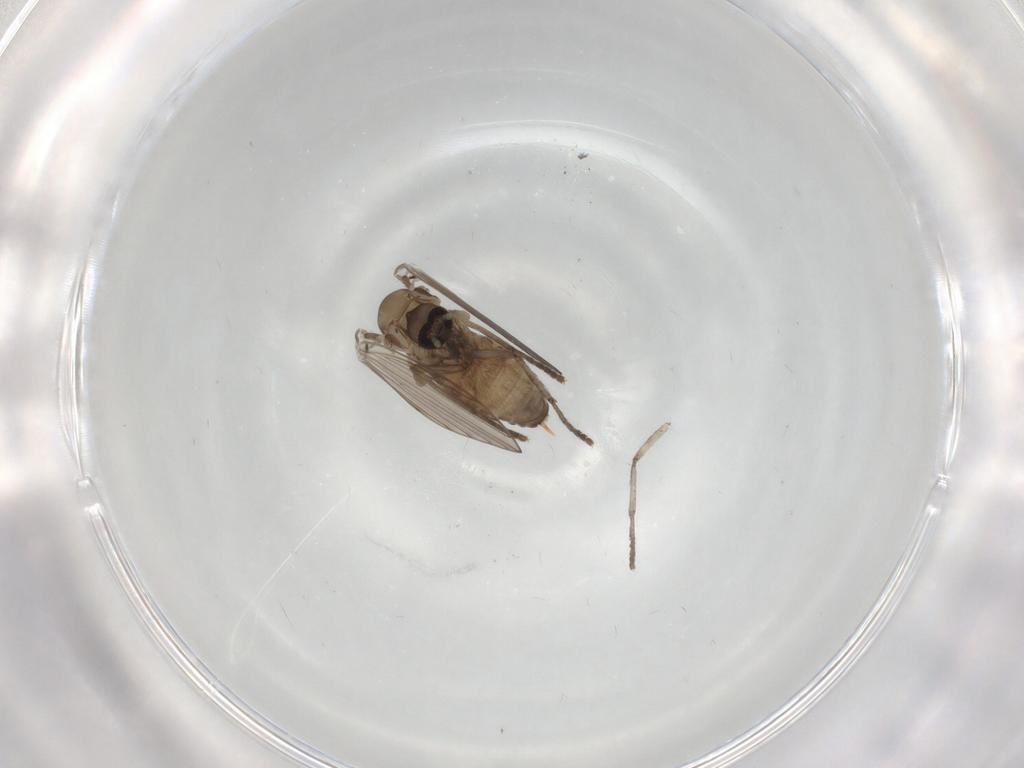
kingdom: Animalia
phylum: Arthropoda
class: Insecta
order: Diptera
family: Psychodidae
